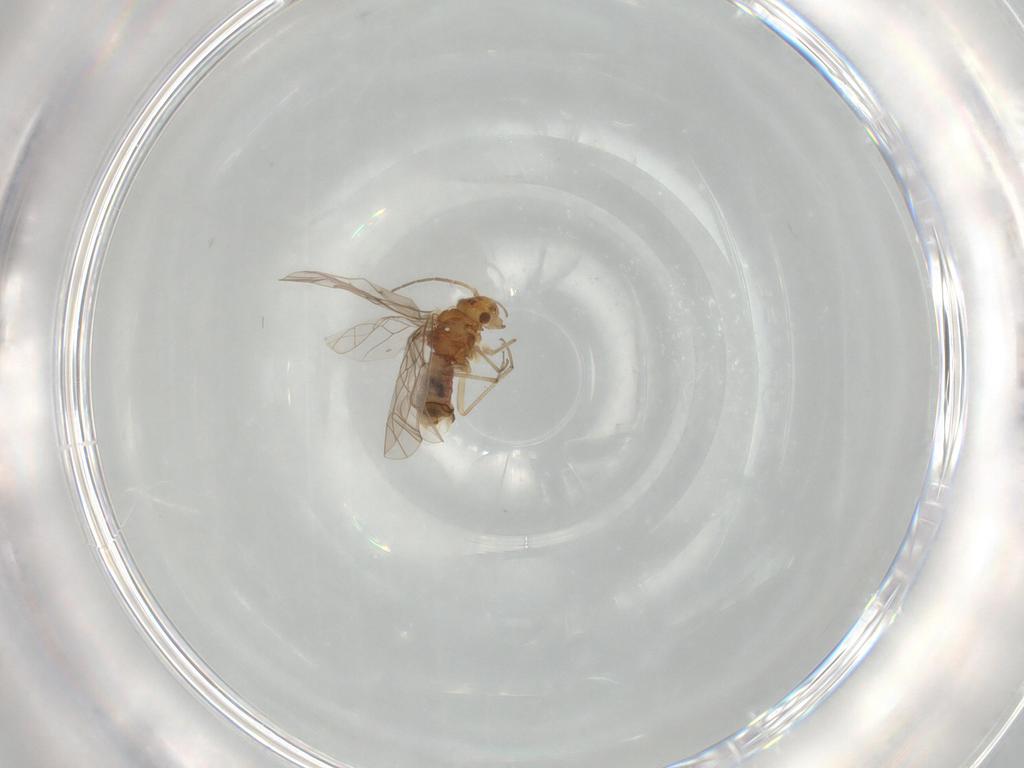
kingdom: Animalia
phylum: Arthropoda
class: Insecta
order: Psocodea
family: Lachesillidae
